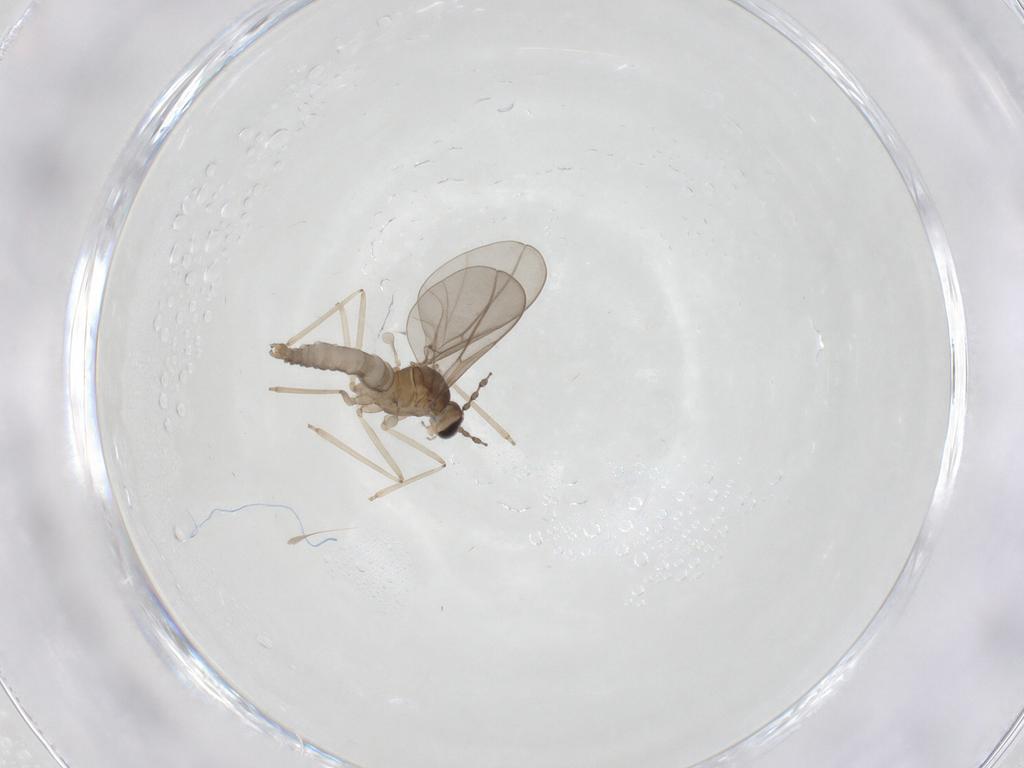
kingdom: Animalia
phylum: Arthropoda
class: Insecta
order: Diptera
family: Cecidomyiidae
